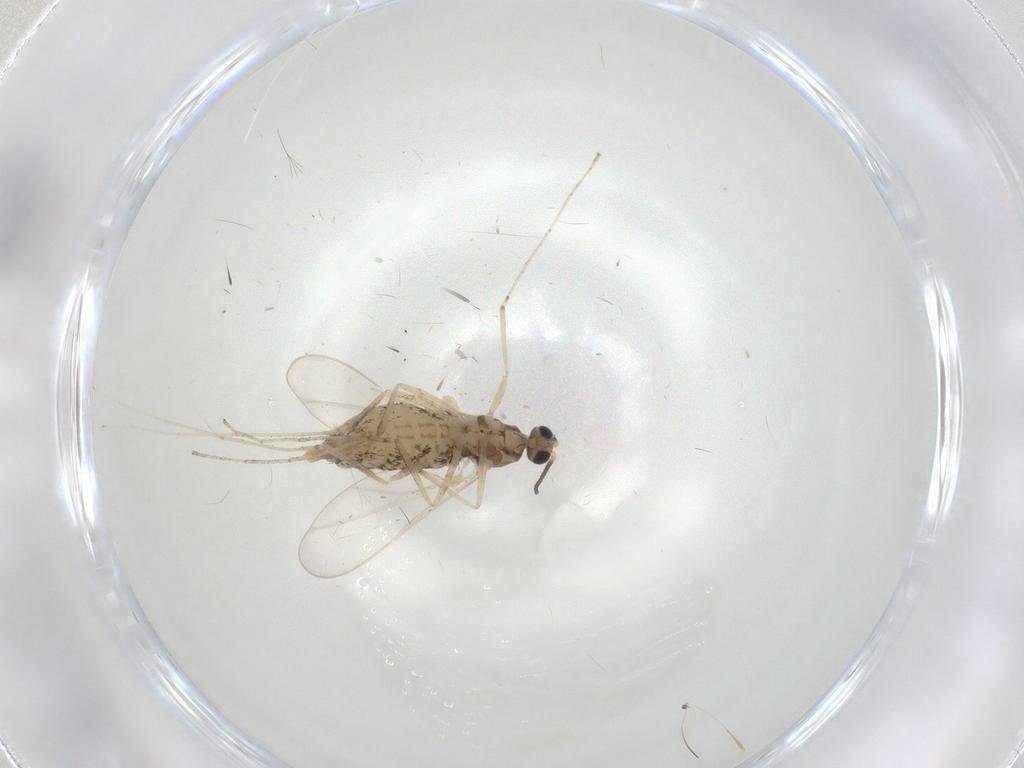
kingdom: Animalia
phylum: Arthropoda
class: Insecta
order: Diptera
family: Cecidomyiidae
